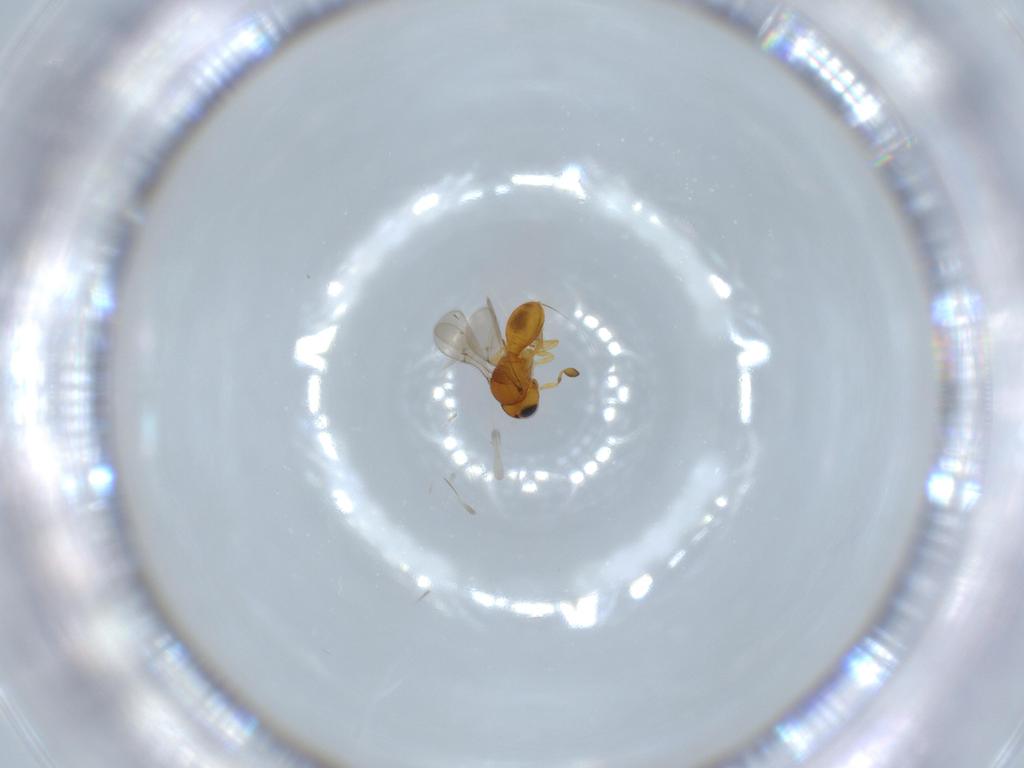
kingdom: Animalia
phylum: Arthropoda
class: Insecta
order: Hymenoptera
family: Scelionidae
